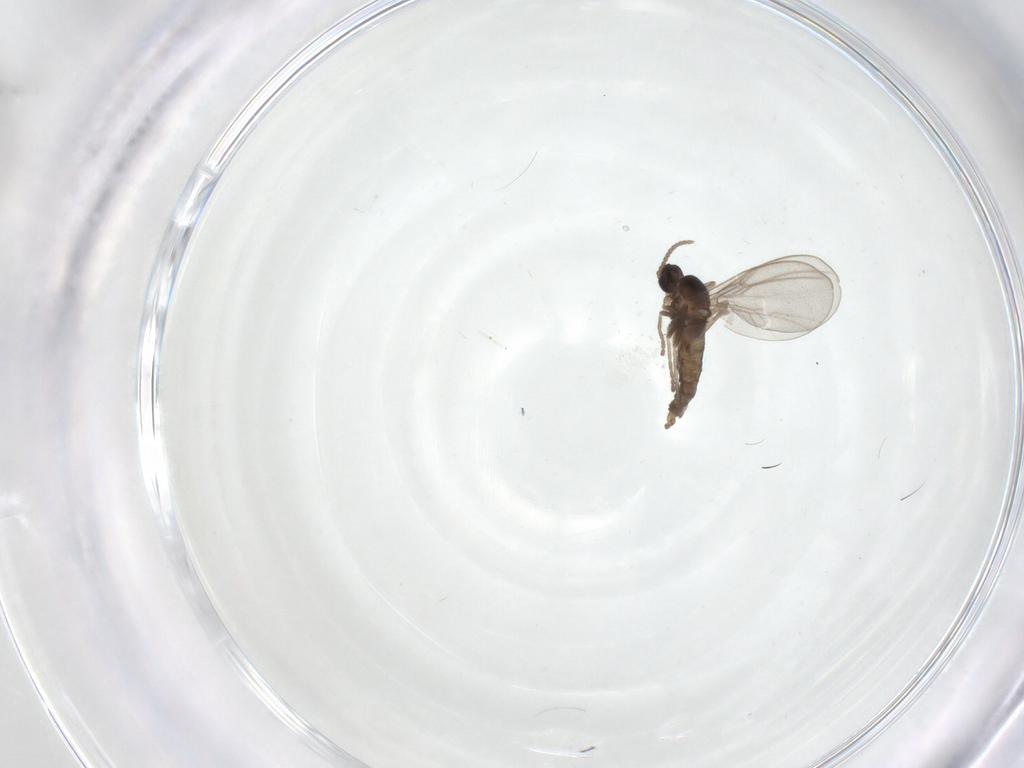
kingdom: Animalia
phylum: Arthropoda
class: Insecta
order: Diptera
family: Cecidomyiidae
